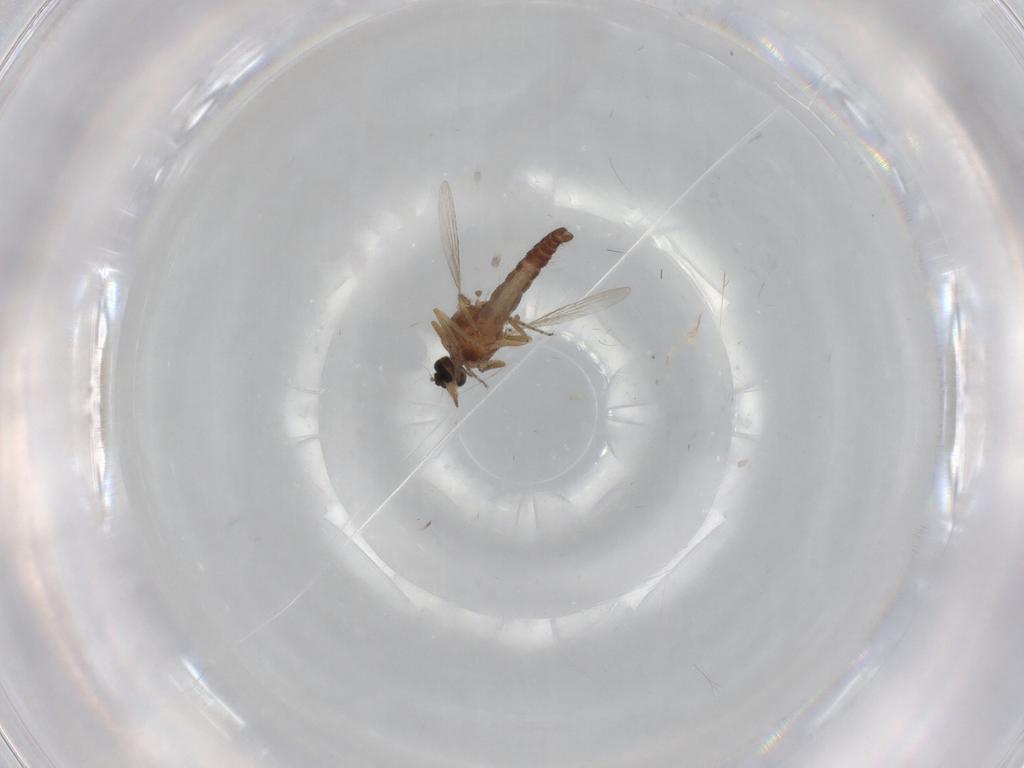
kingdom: Animalia
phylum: Arthropoda
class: Insecta
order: Diptera
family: Ceratopogonidae
